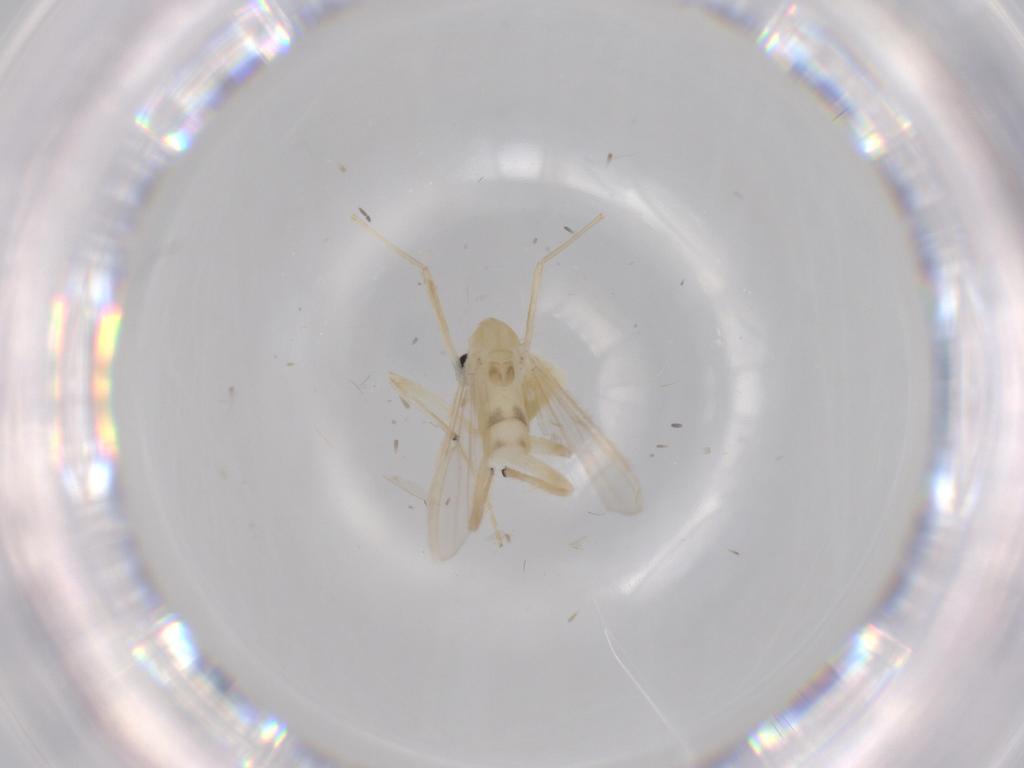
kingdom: Animalia
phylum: Arthropoda
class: Insecta
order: Diptera
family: Chironomidae
